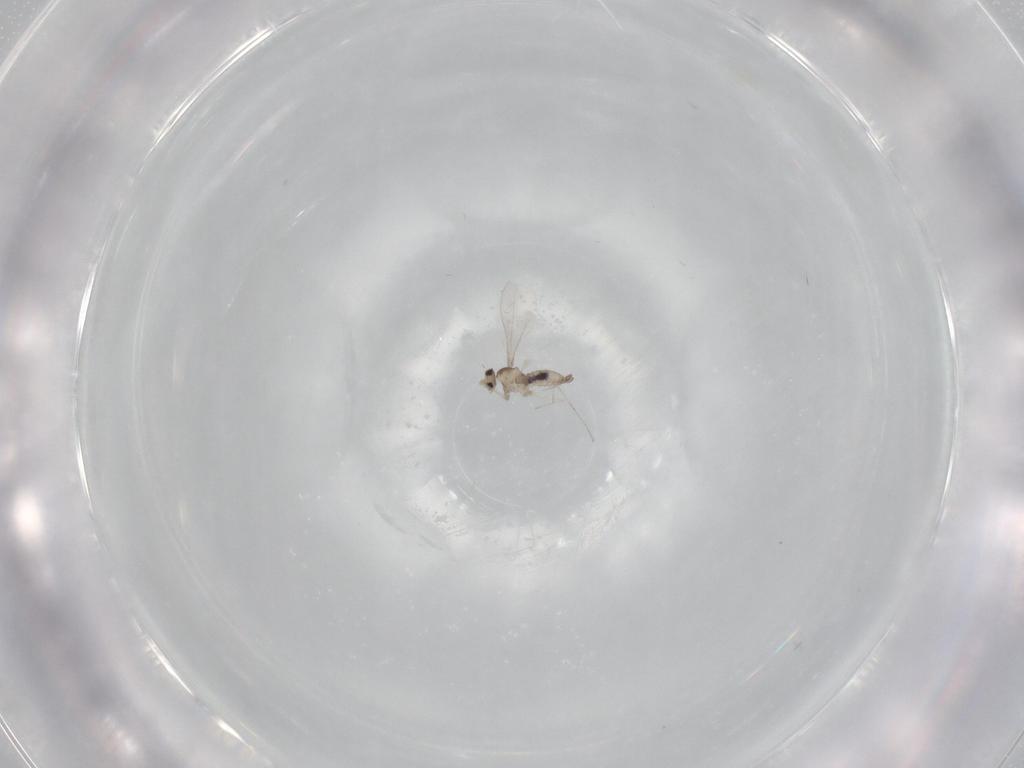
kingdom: Animalia
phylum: Arthropoda
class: Insecta
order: Diptera
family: Cecidomyiidae
